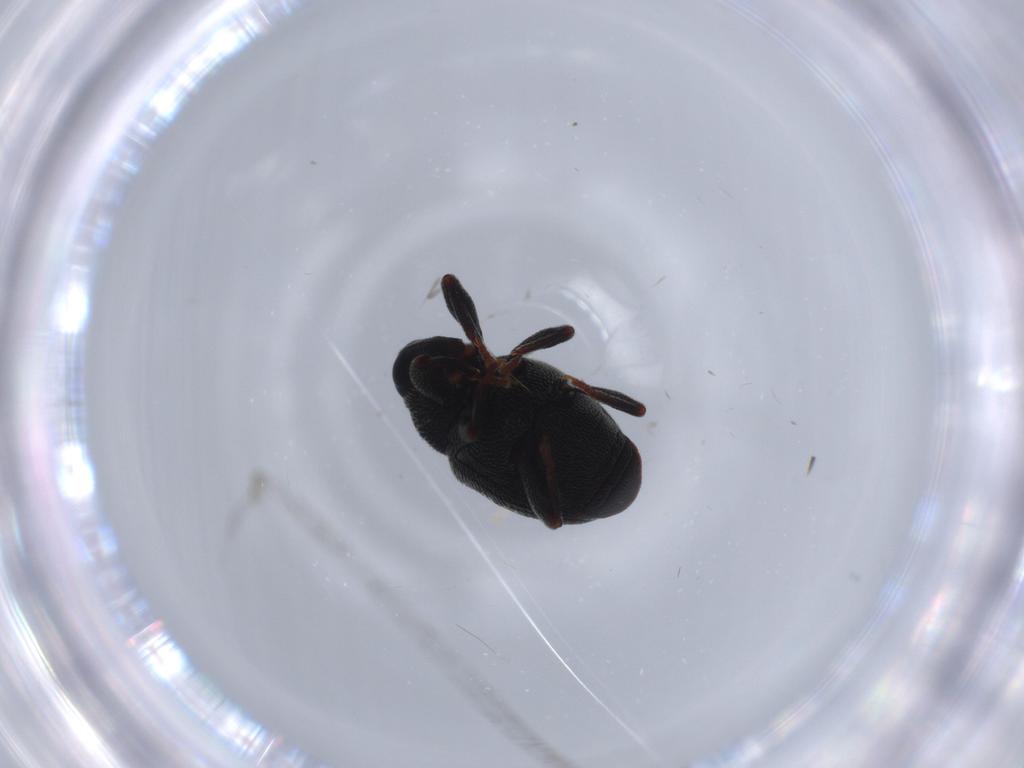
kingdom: Animalia
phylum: Arthropoda
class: Insecta
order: Coleoptera
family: Curculionidae
